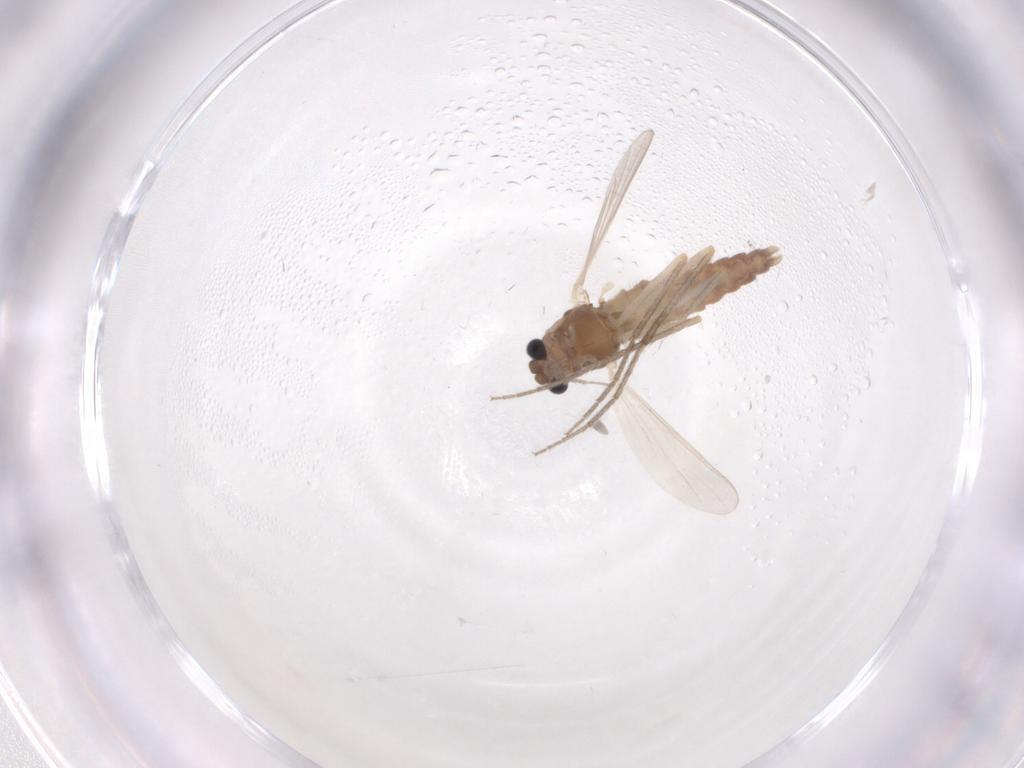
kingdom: Animalia
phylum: Arthropoda
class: Insecta
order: Diptera
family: Chironomidae
